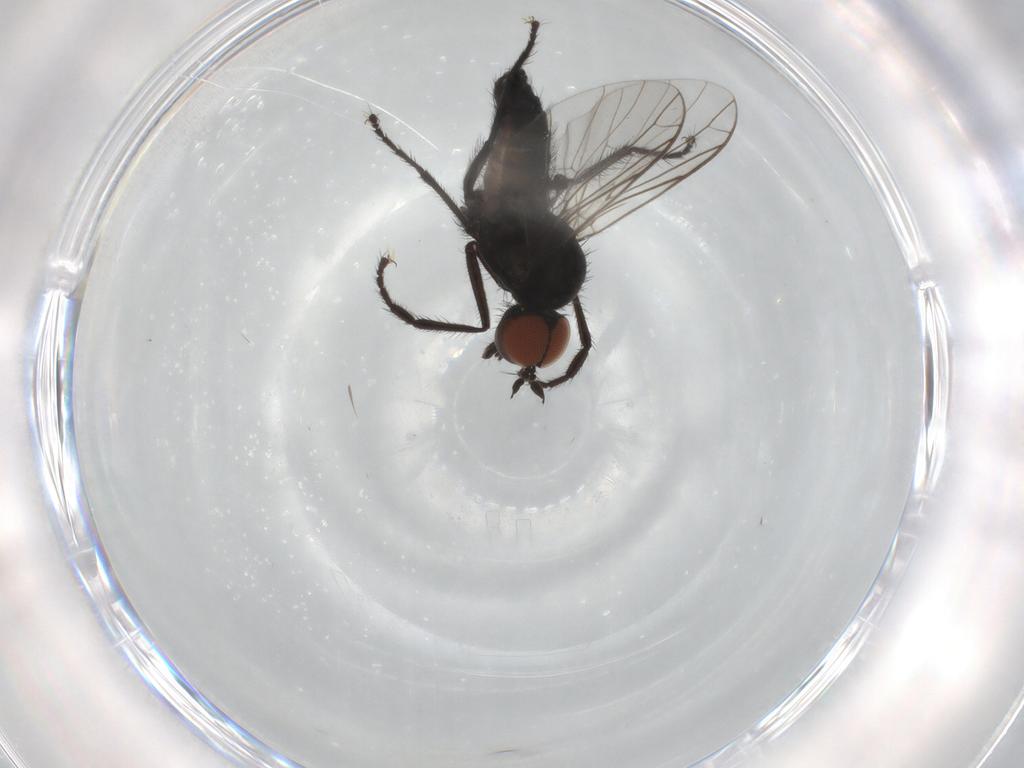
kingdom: Animalia
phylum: Arthropoda
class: Insecta
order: Diptera
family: Empididae
